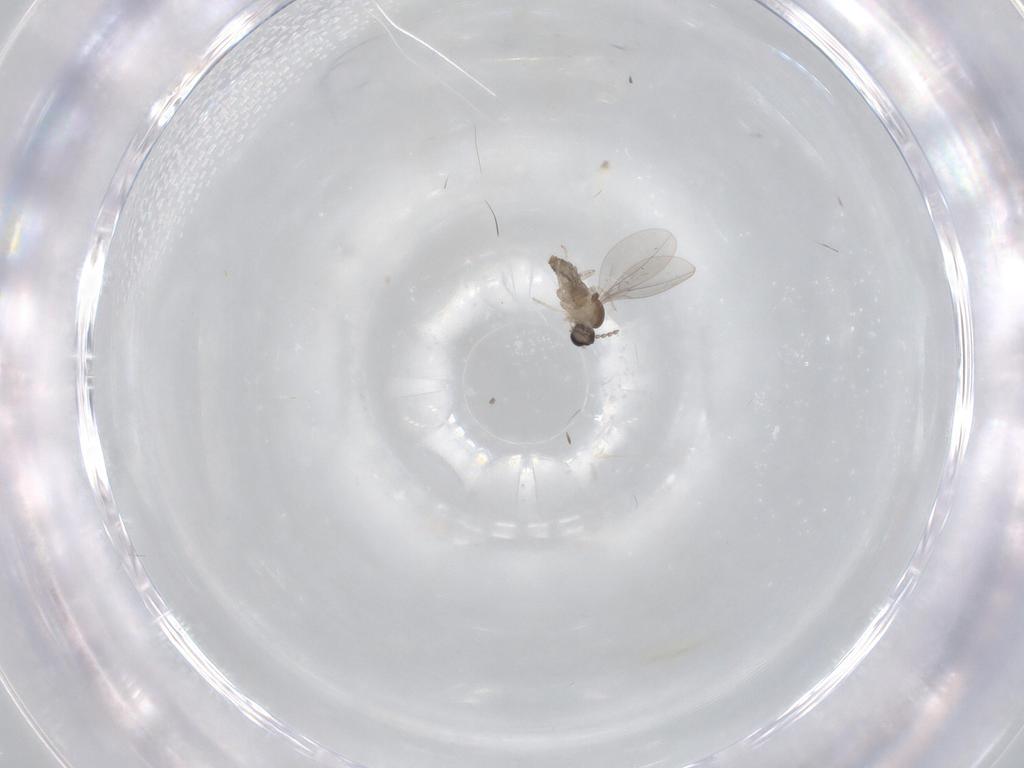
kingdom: Animalia
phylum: Arthropoda
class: Insecta
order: Diptera
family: Cecidomyiidae
